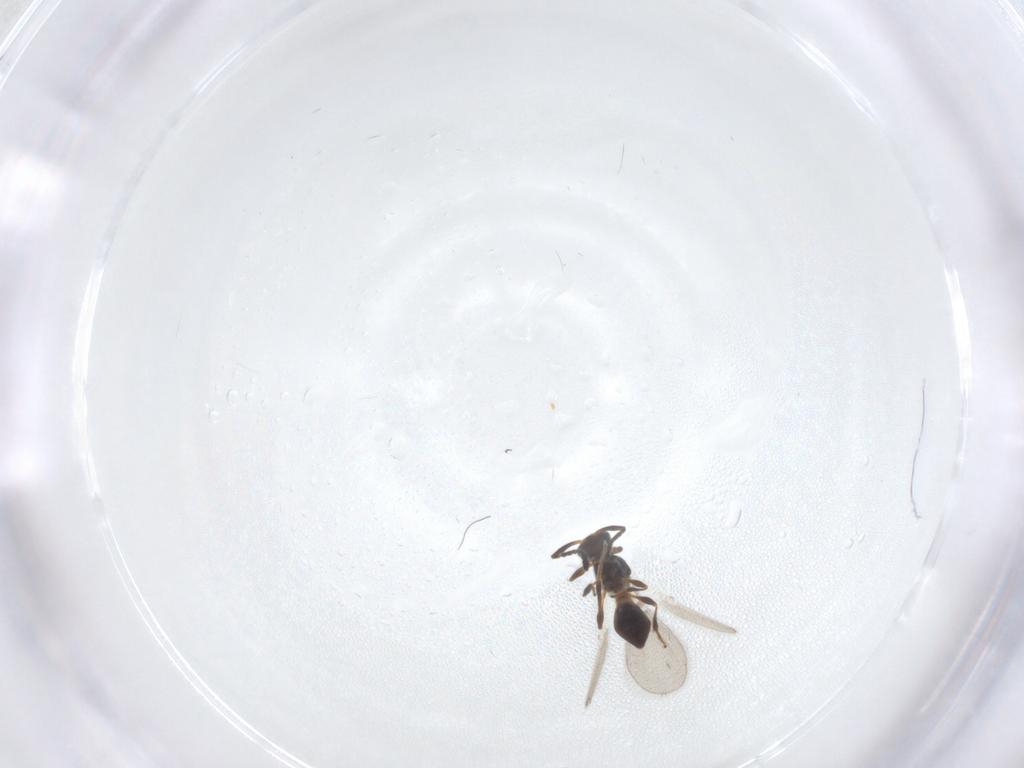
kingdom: Animalia
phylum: Arthropoda
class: Insecta
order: Hymenoptera
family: Platygastridae
